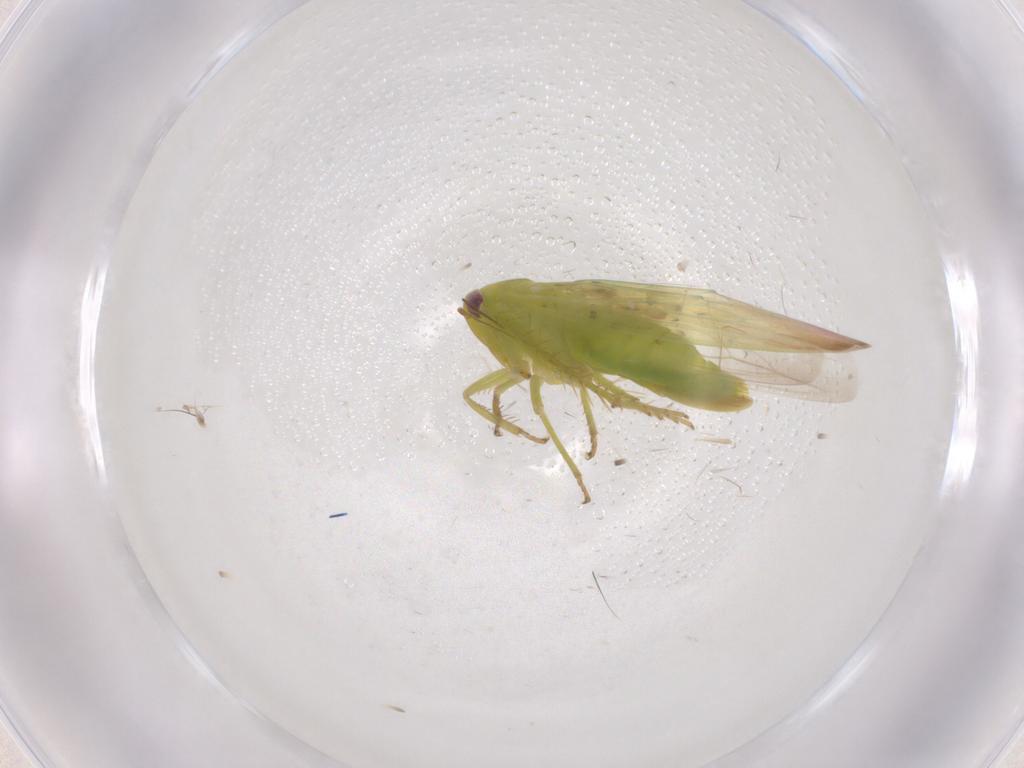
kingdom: Animalia
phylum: Arthropoda
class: Insecta
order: Hemiptera
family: Cicadellidae
